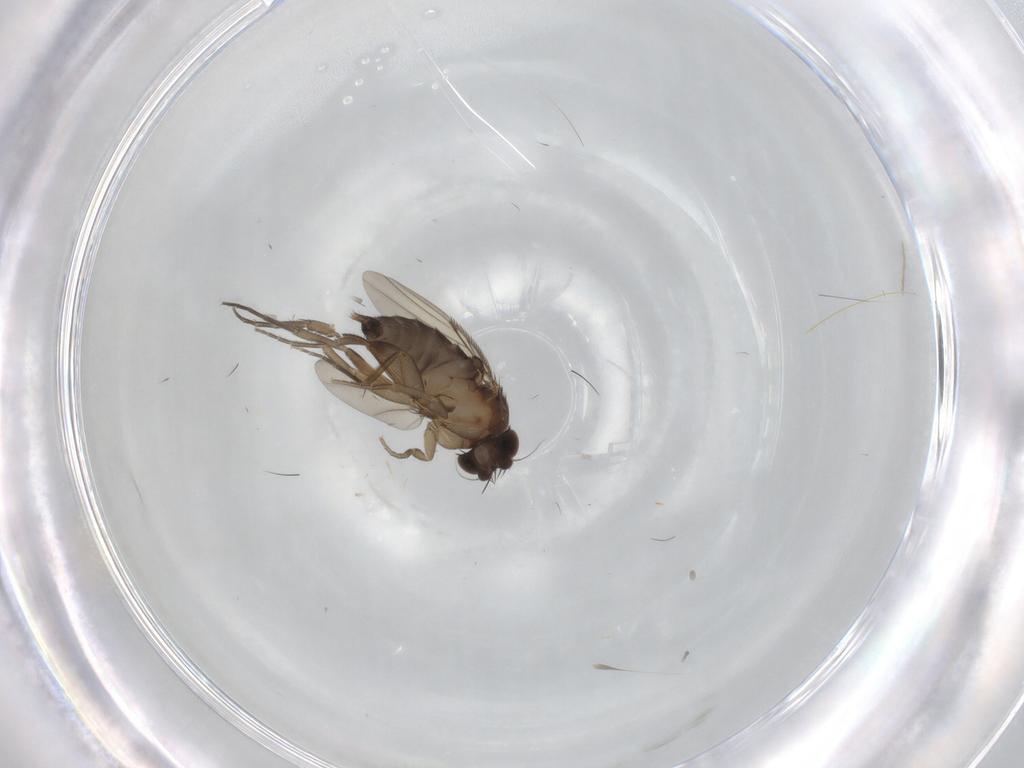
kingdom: Animalia
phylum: Arthropoda
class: Insecta
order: Diptera
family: Phoridae
